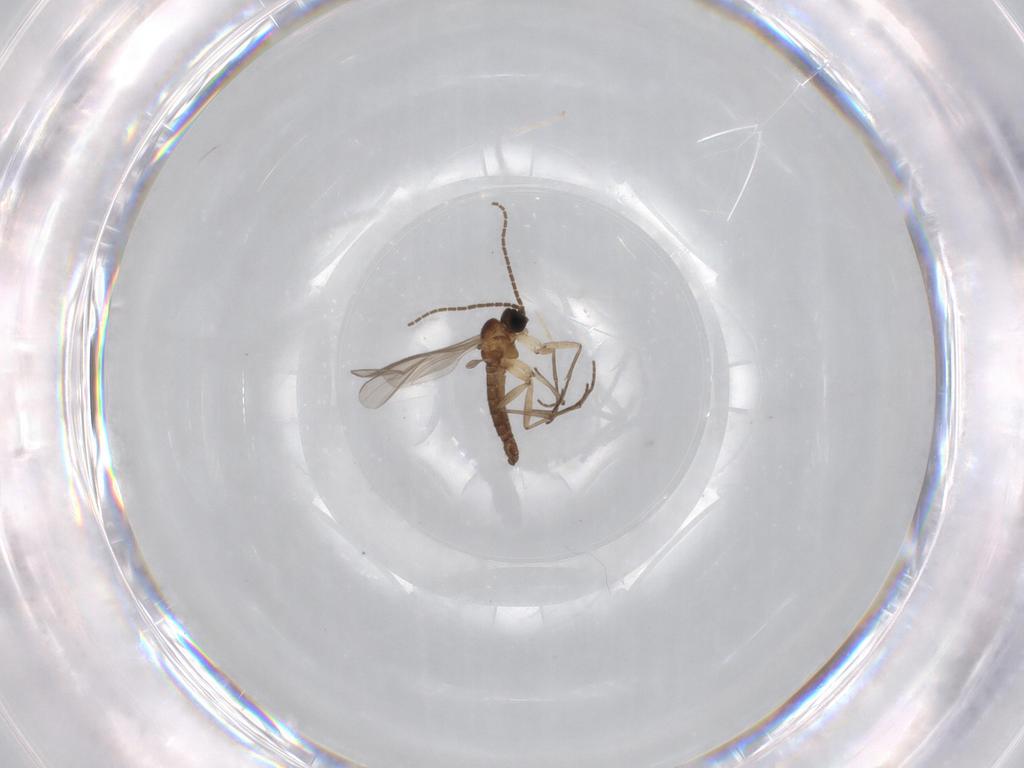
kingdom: Animalia
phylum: Arthropoda
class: Insecta
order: Diptera
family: Sciaridae
